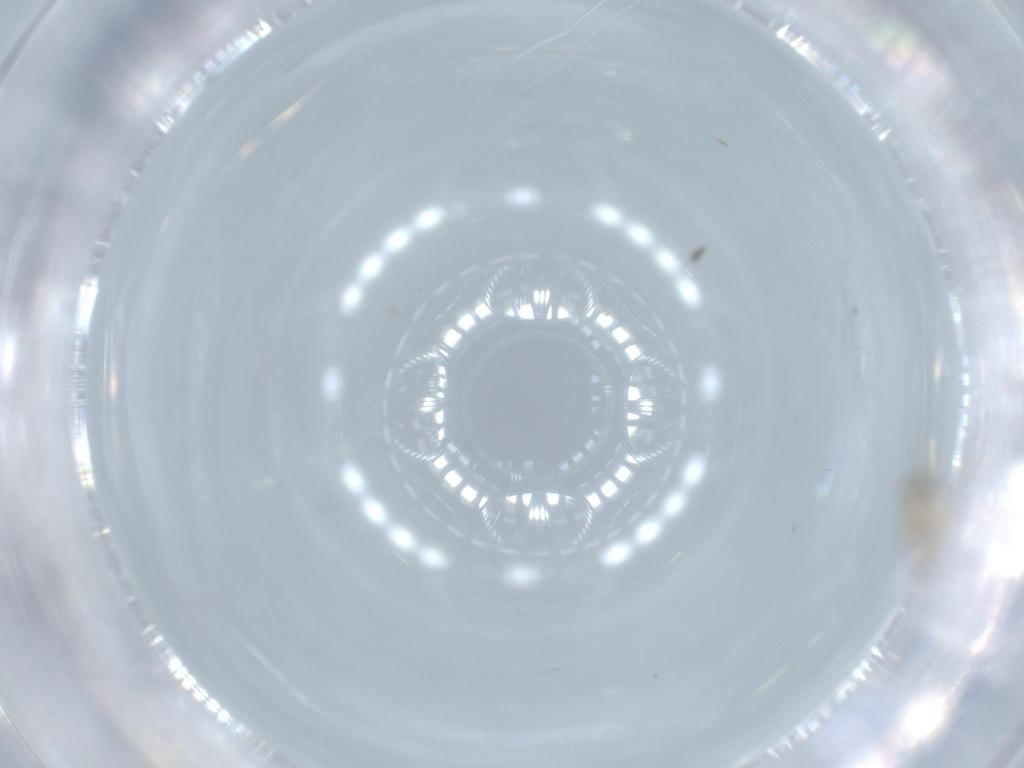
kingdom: Animalia
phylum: Arthropoda
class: Insecta
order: Diptera
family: Cecidomyiidae
